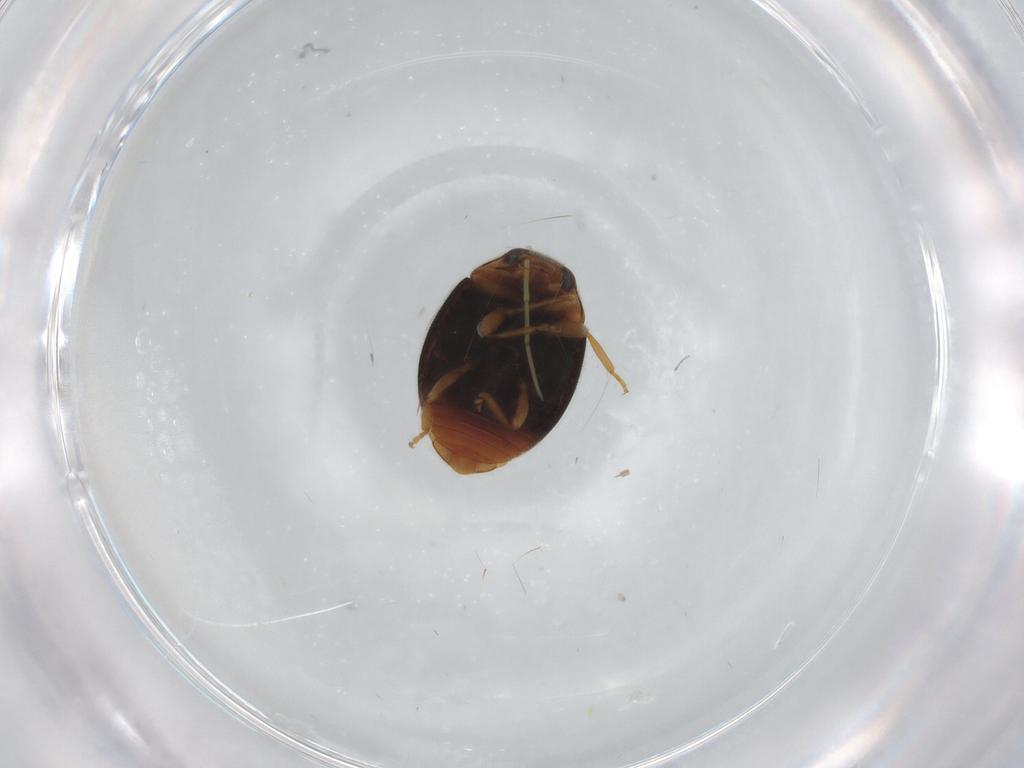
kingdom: Animalia
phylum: Arthropoda
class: Insecta
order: Coleoptera
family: Coccinellidae
